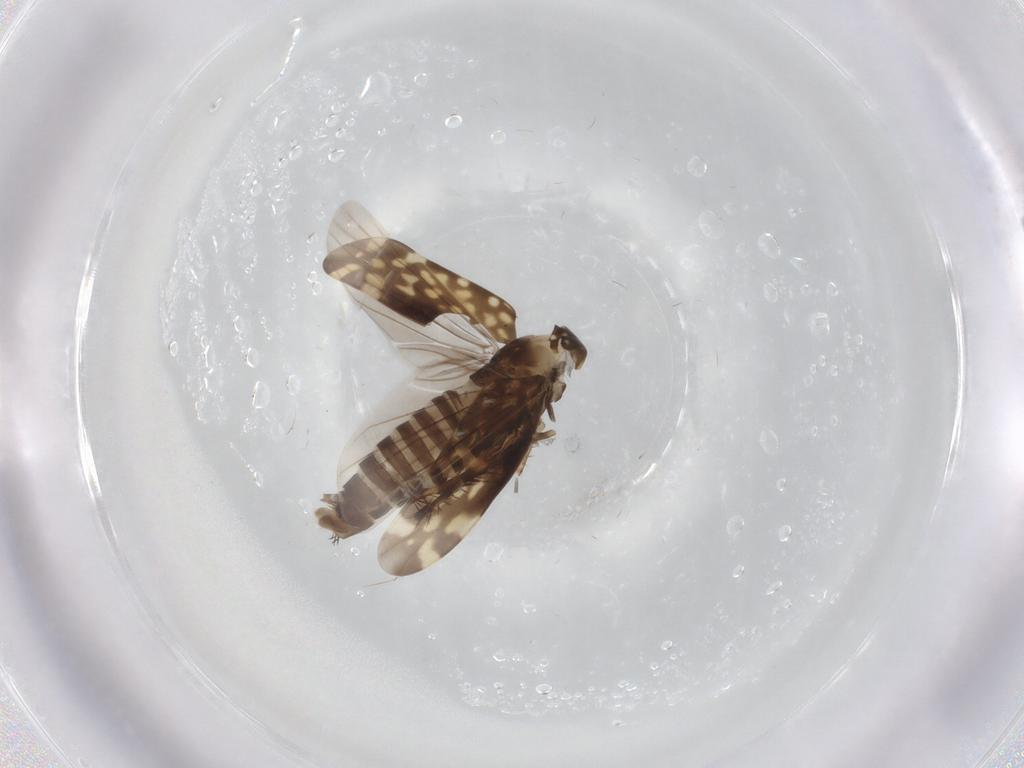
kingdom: Animalia
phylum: Arthropoda
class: Insecta
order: Hemiptera
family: Cicadellidae
